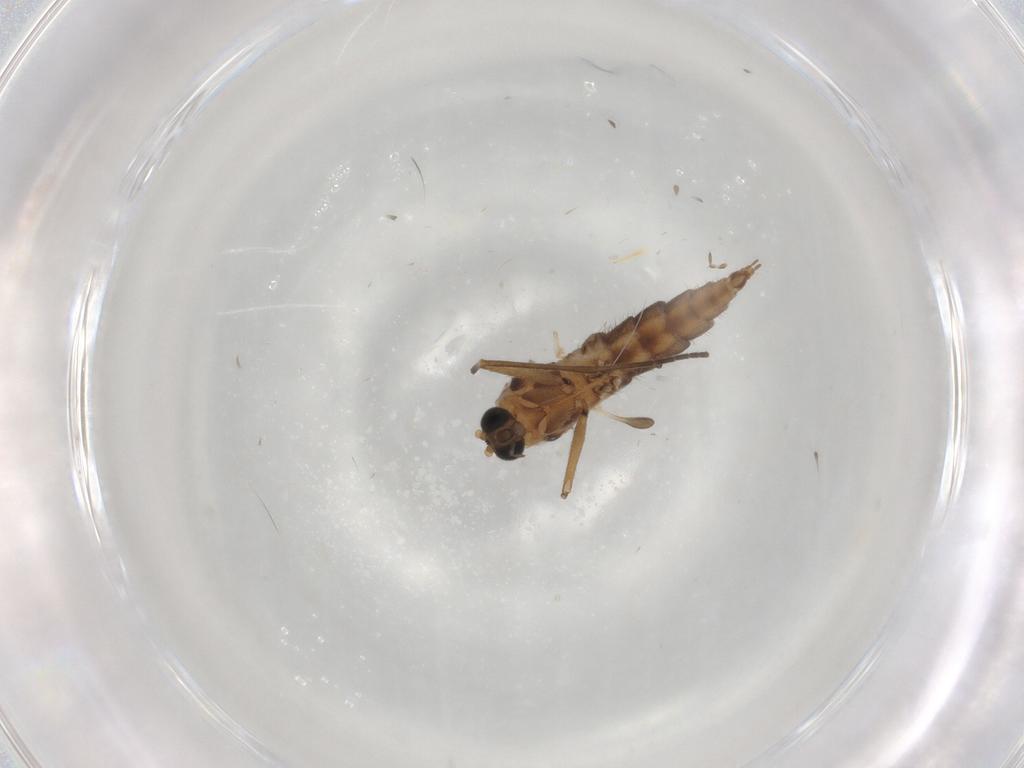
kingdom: Animalia
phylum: Arthropoda
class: Insecta
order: Diptera
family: Sciaridae
